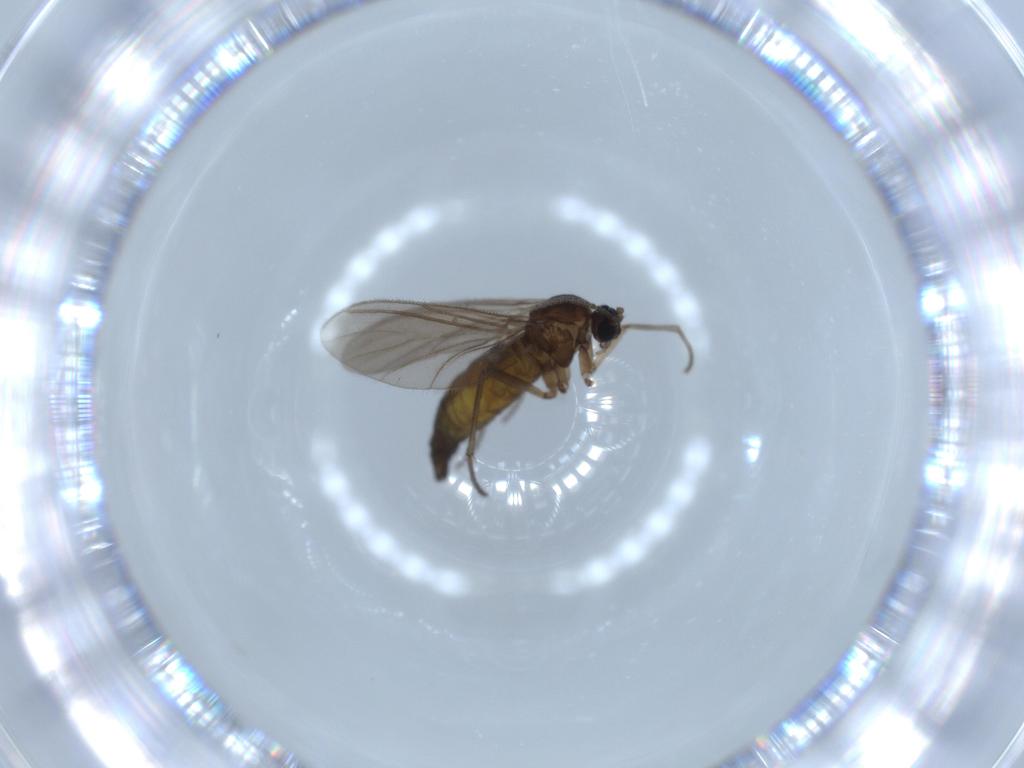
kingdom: Animalia
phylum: Arthropoda
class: Insecta
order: Diptera
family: Sciaridae
